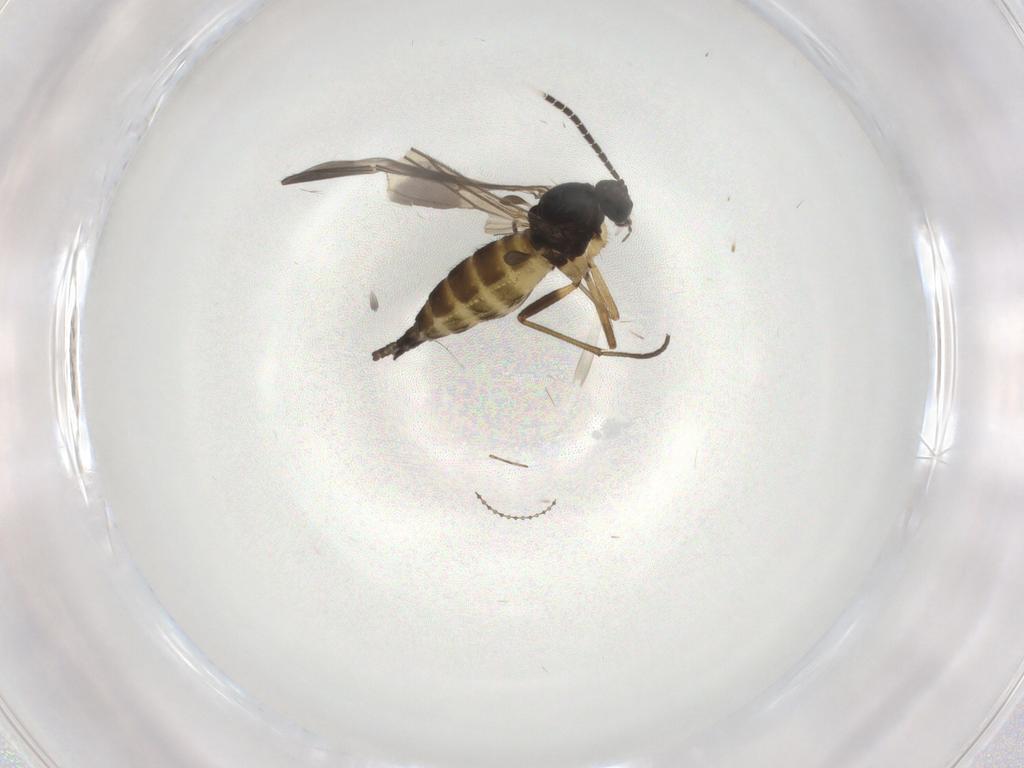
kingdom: Animalia
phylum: Arthropoda
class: Insecta
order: Diptera
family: Sciaridae
